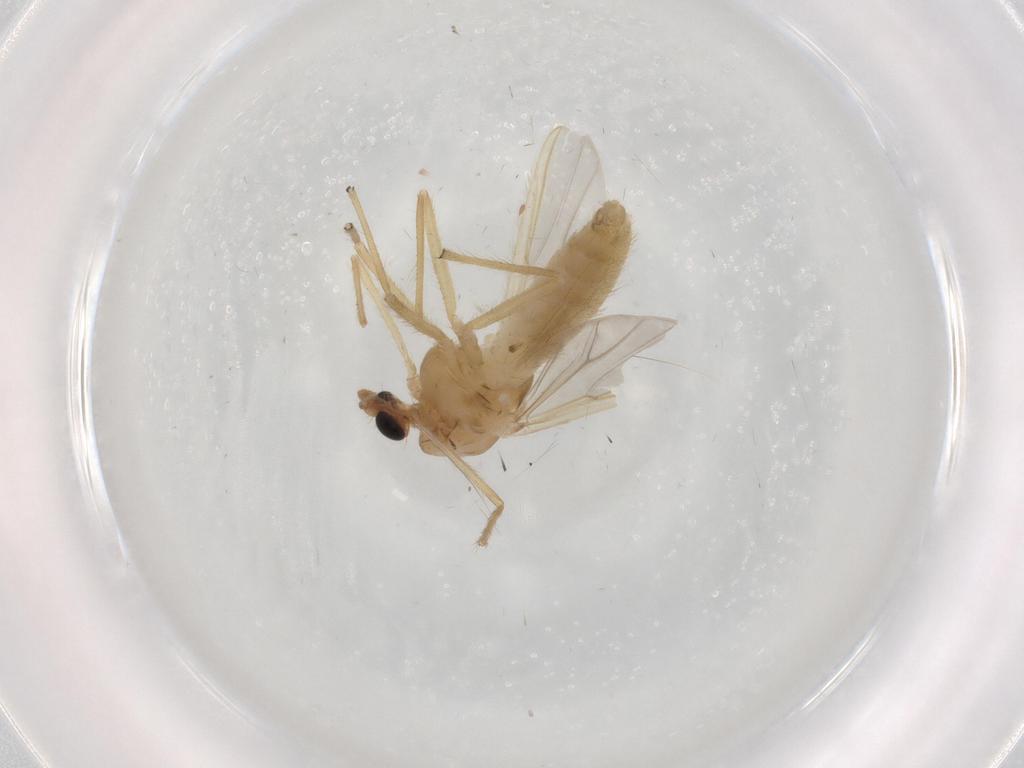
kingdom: Animalia
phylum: Arthropoda
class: Insecta
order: Diptera
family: Chironomidae
